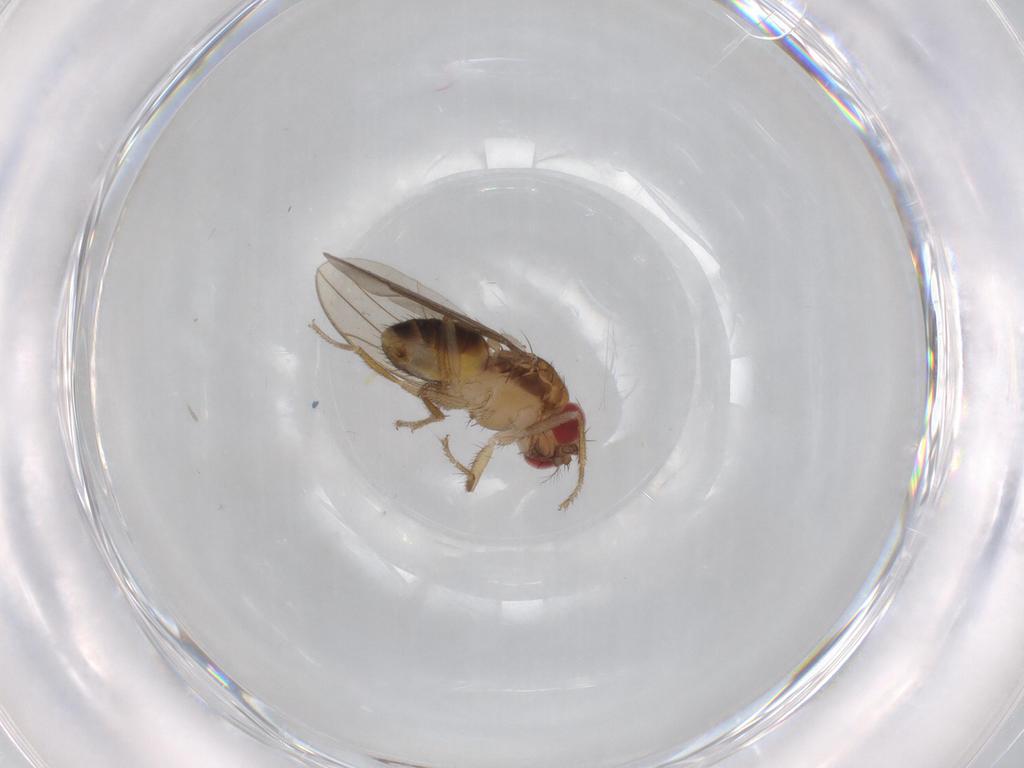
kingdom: Animalia
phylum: Arthropoda
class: Insecta
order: Diptera
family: Drosophilidae
